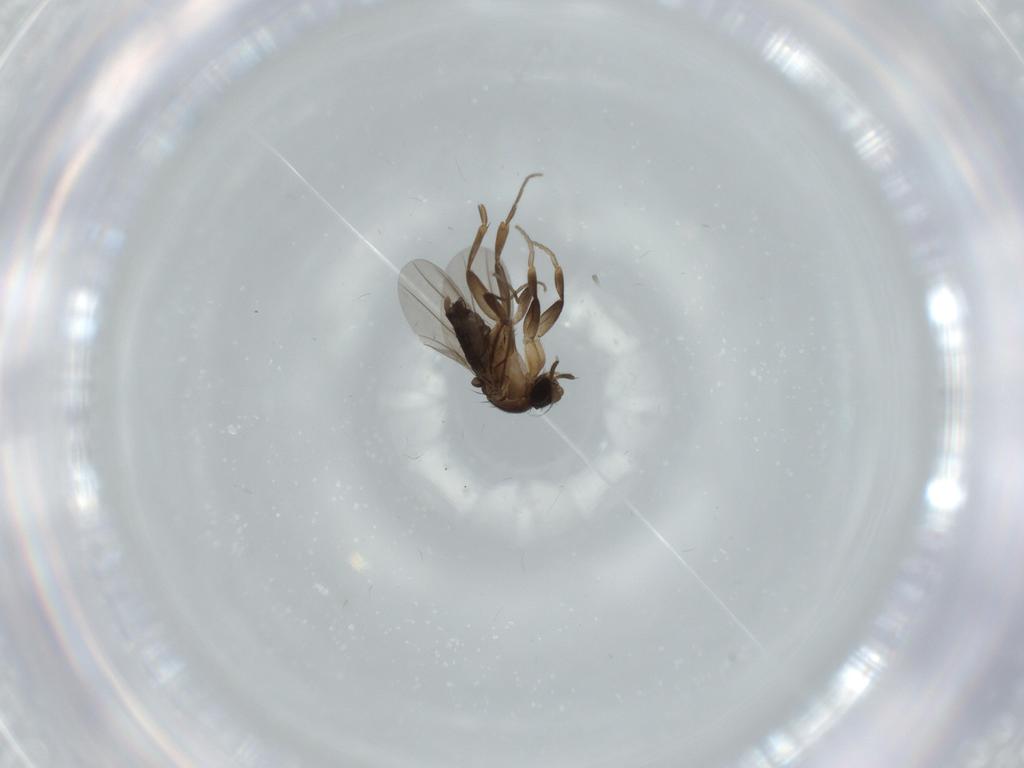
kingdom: Animalia
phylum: Arthropoda
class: Insecta
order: Diptera
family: Phoridae
